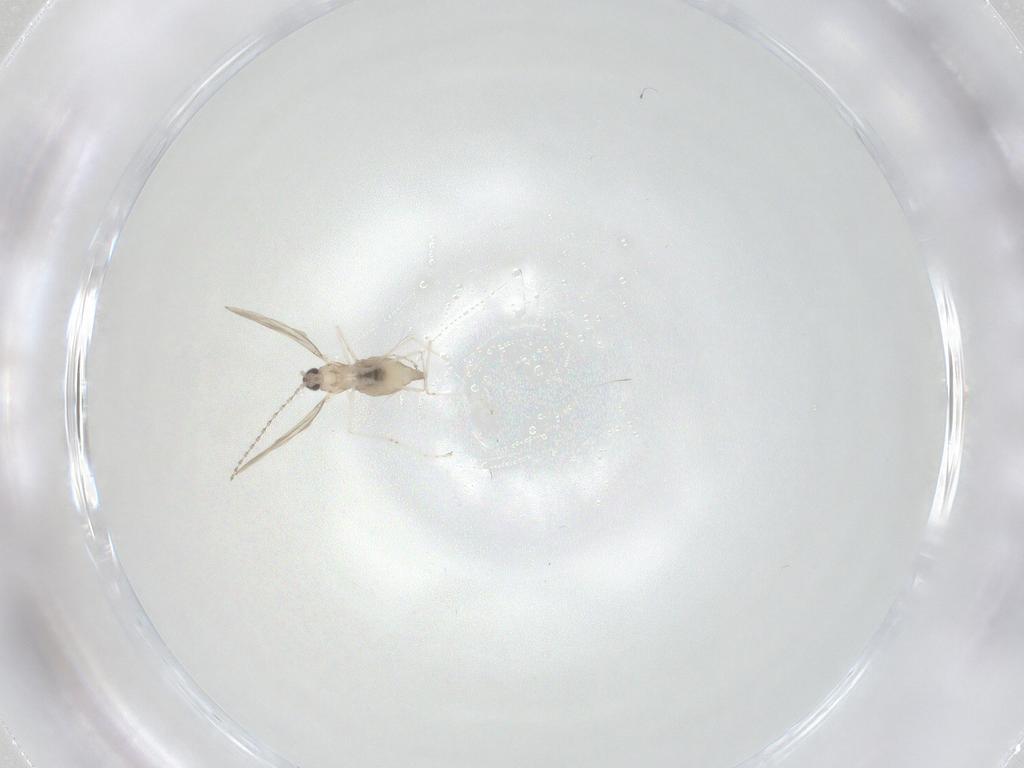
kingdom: Animalia
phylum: Arthropoda
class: Insecta
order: Diptera
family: Cecidomyiidae
